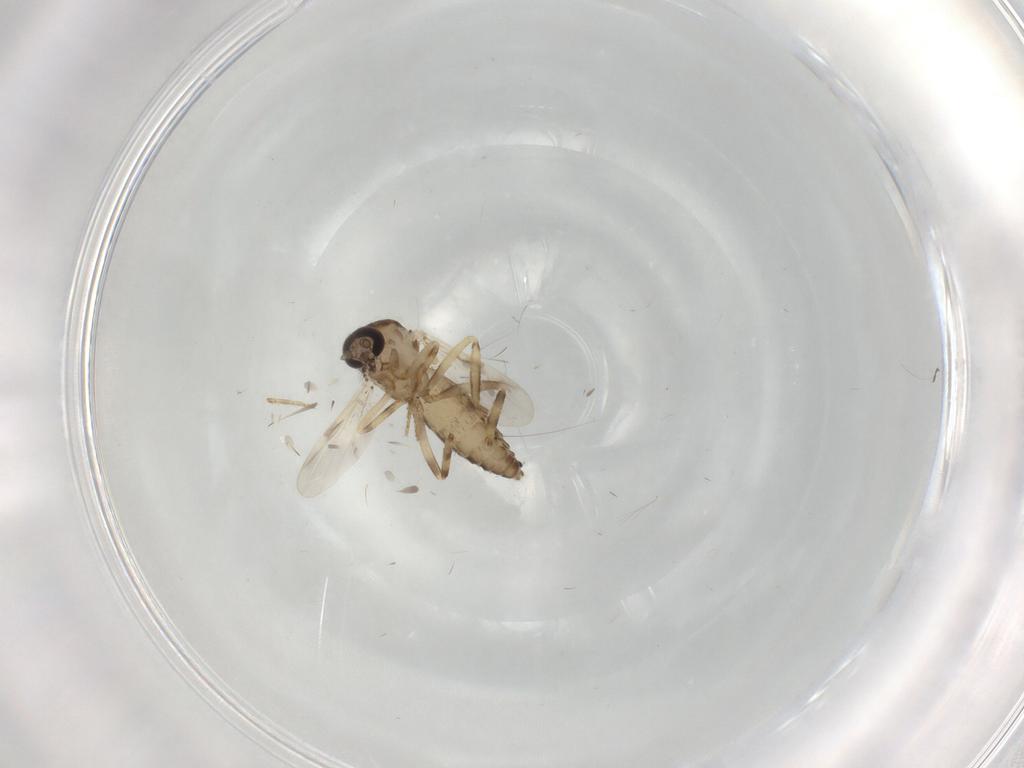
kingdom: Animalia
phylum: Arthropoda
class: Insecta
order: Diptera
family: Ceratopogonidae
